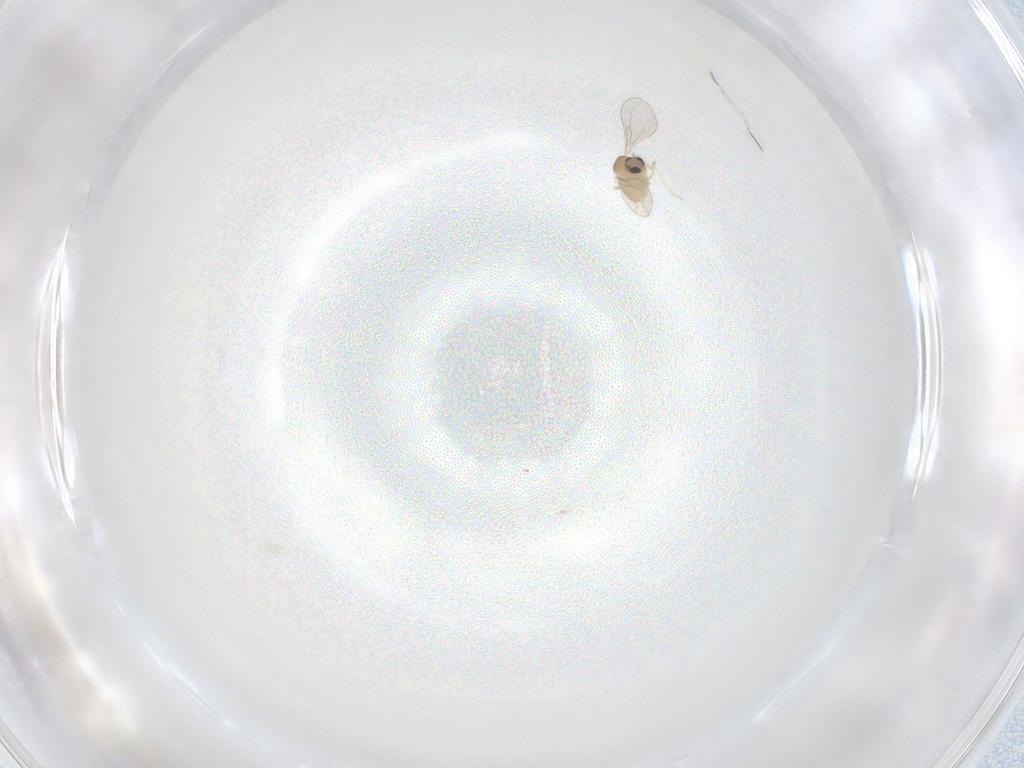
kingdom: Animalia
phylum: Arthropoda
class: Insecta
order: Diptera
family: Cecidomyiidae
